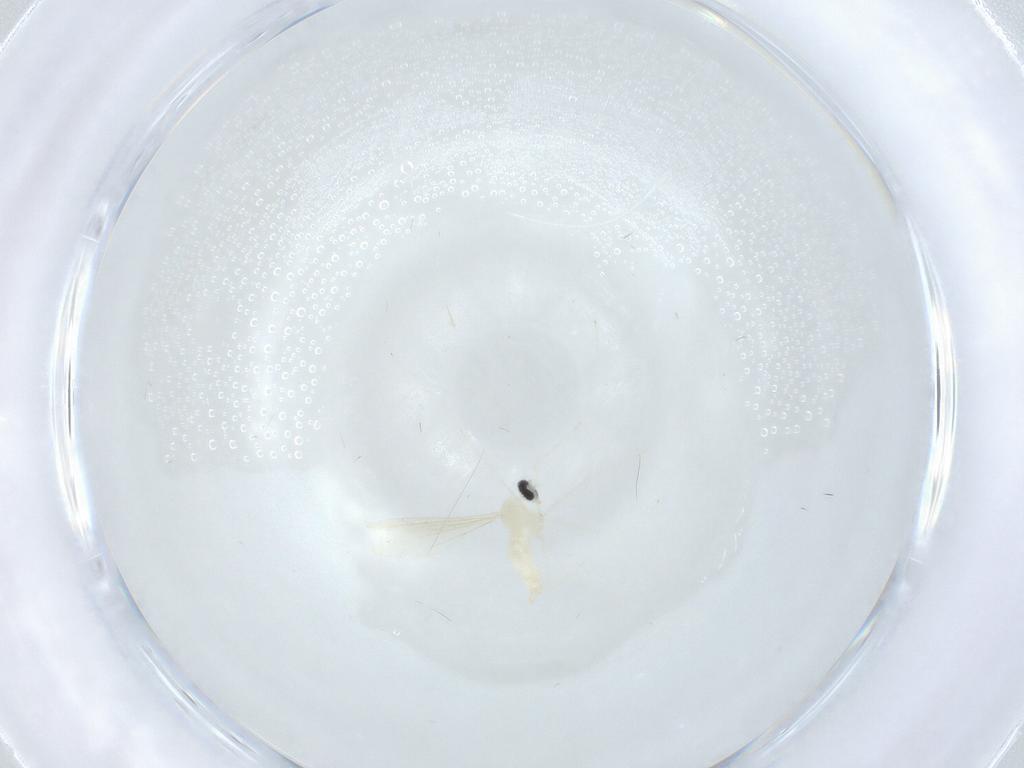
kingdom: Animalia
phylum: Arthropoda
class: Insecta
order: Diptera
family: Cecidomyiidae
